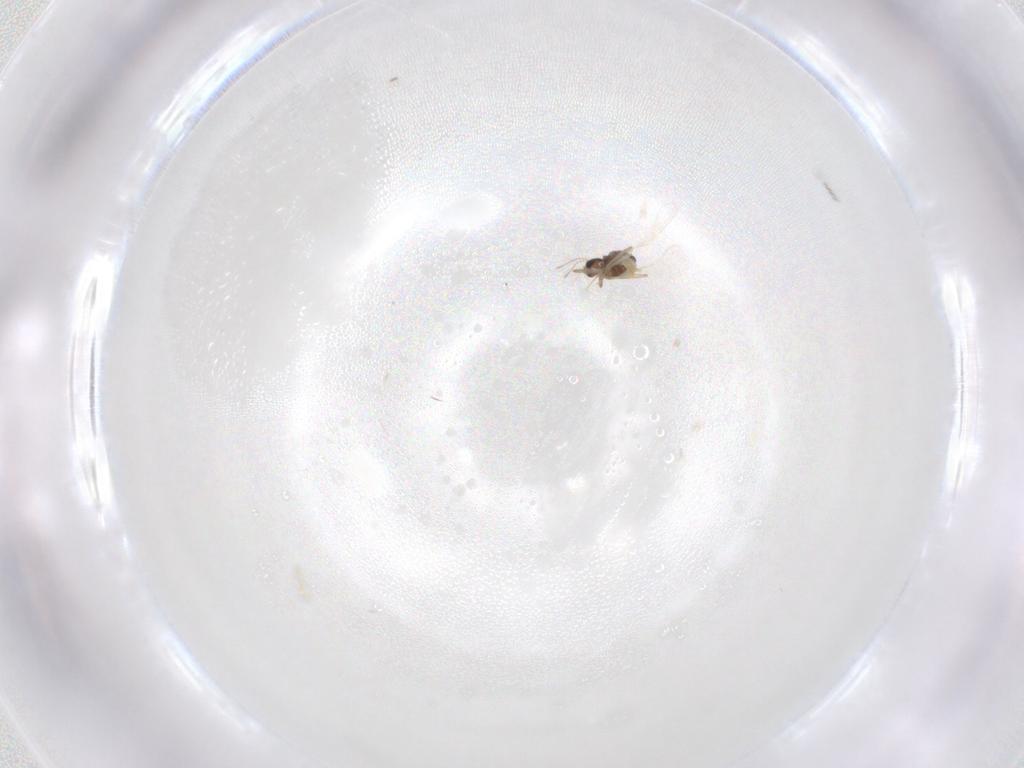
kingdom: Animalia
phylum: Arthropoda
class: Insecta
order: Diptera
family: Chironomidae
